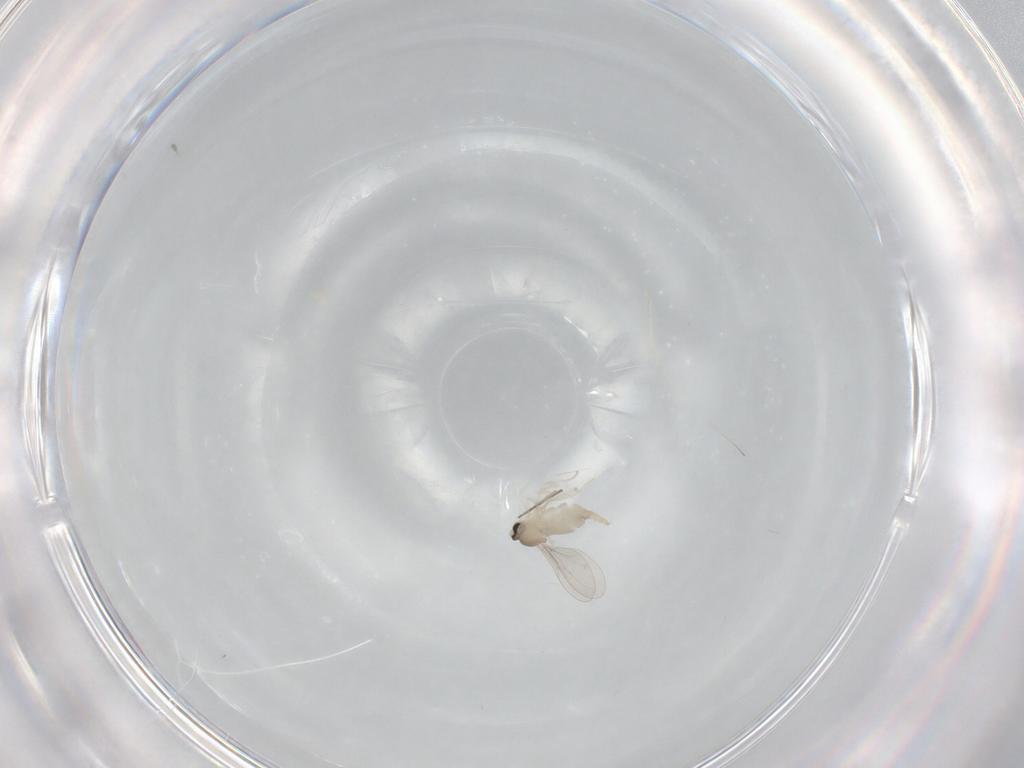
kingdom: Animalia
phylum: Arthropoda
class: Insecta
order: Diptera
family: Cecidomyiidae
